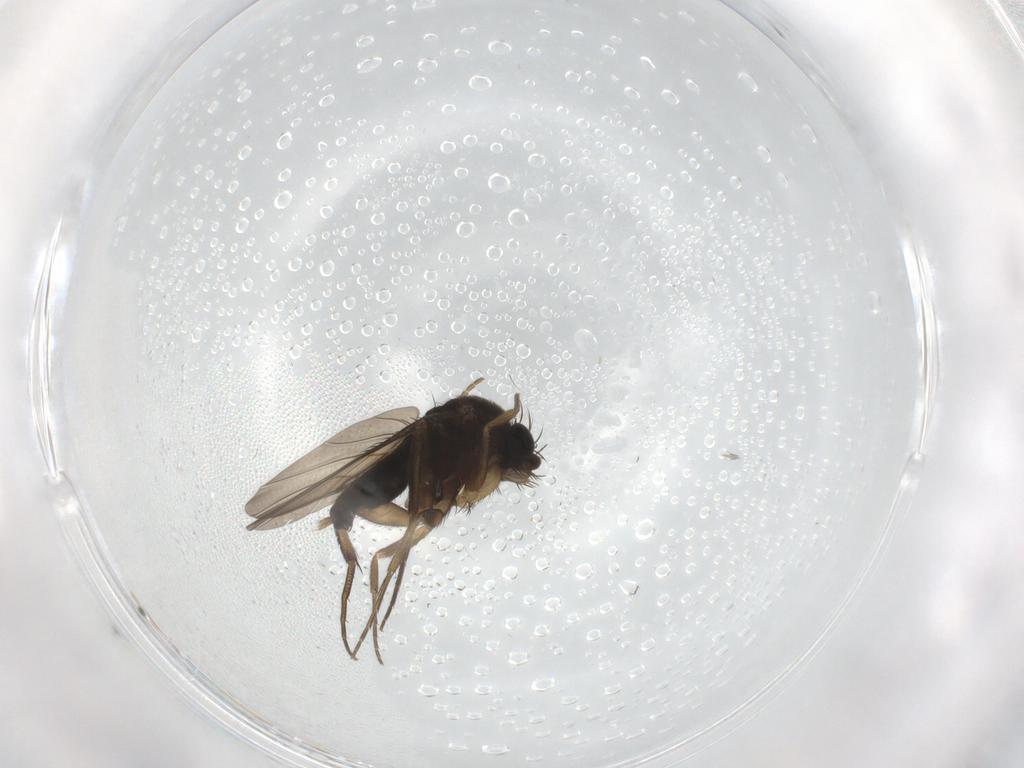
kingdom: Animalia
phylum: Arthropoda
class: Insecta
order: Diptera
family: Phoridae
